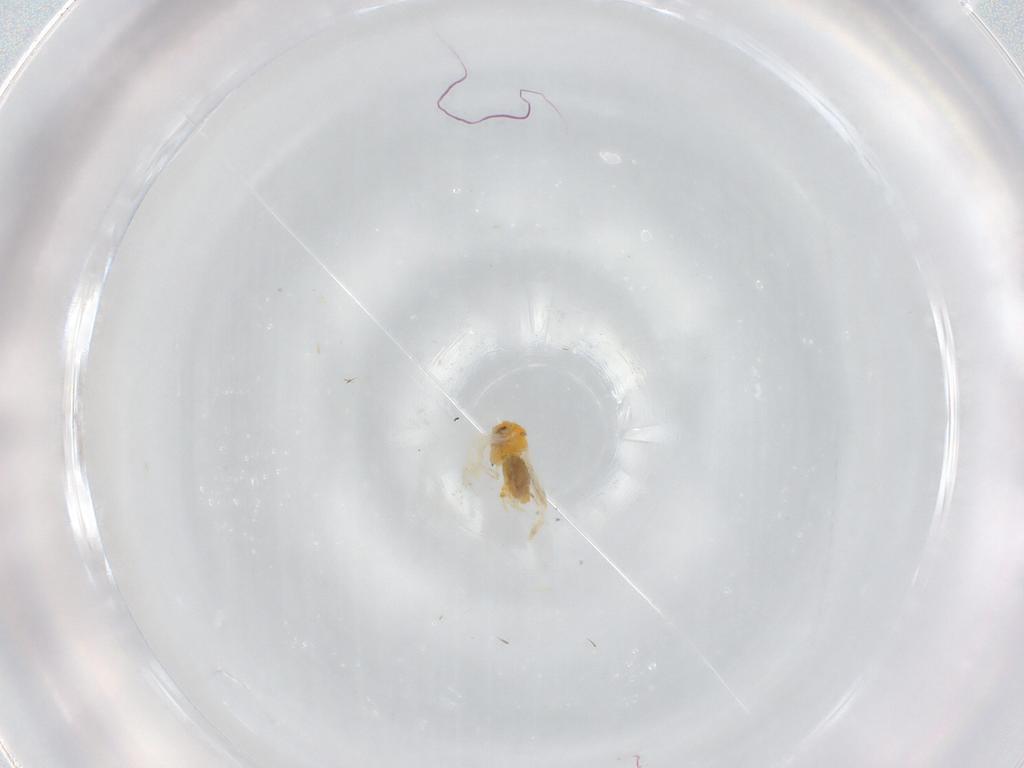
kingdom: Animalia
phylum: Arthropoda
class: Insecta
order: Hemiptera
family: Aleyrodidae
